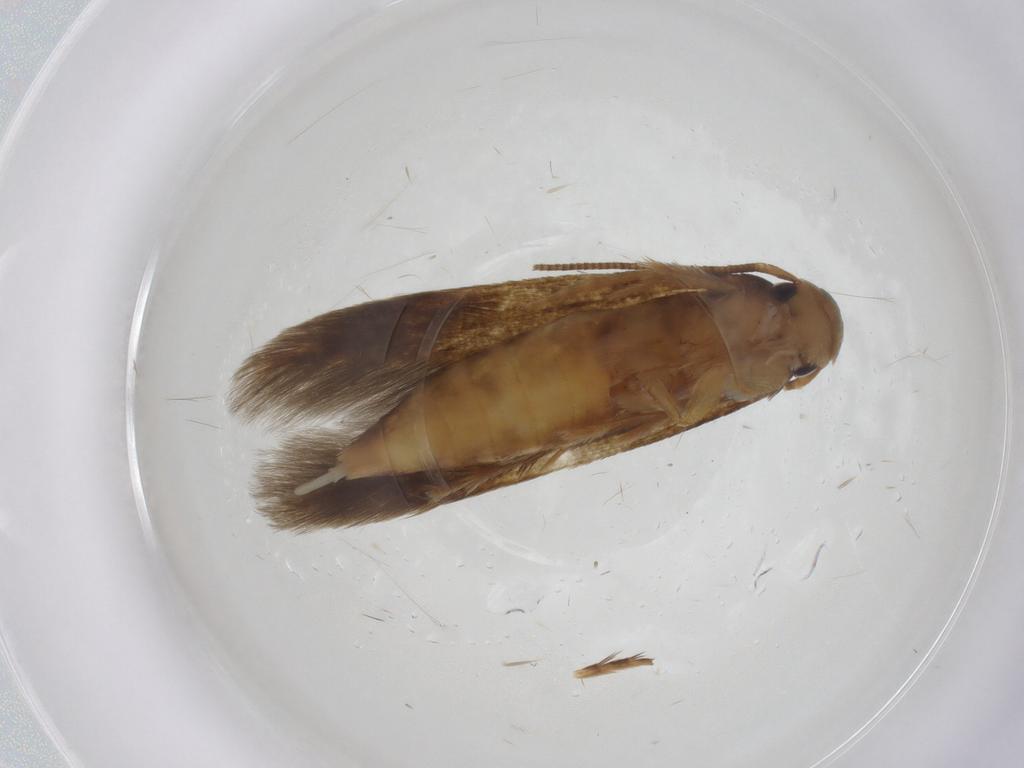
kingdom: Animalia
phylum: Arthropoda
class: Insecta
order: Lepidoptera
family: Tineidae
